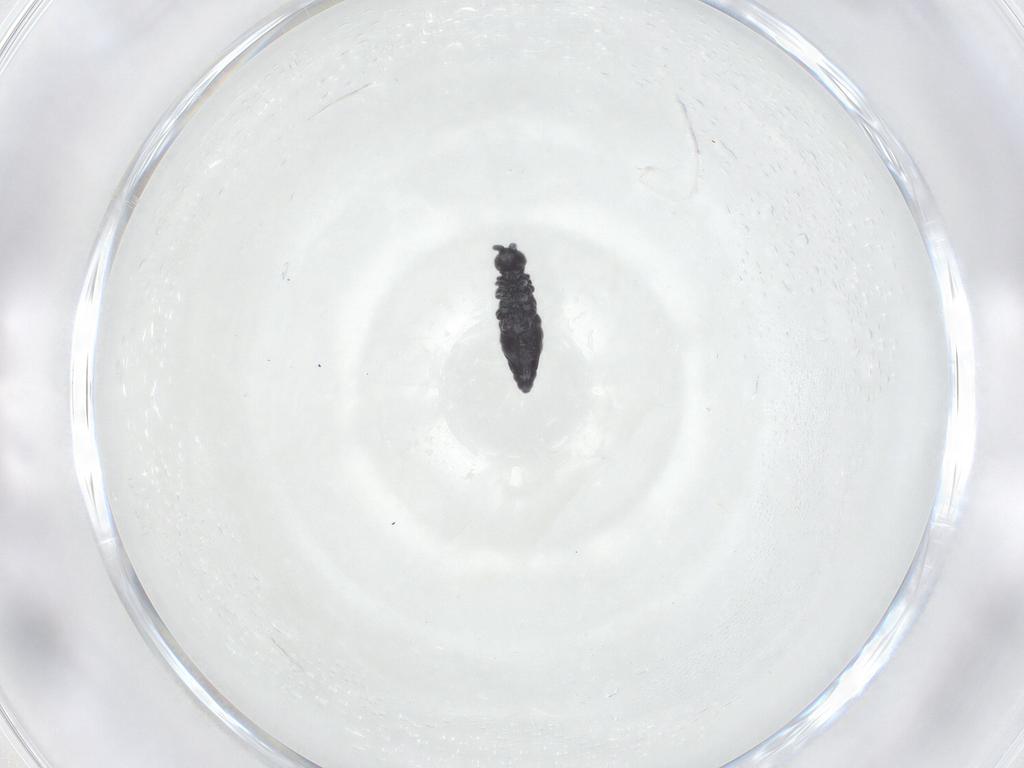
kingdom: Animalia
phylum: Arthropoda
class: Collembola
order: Poduromorpha
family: Hypogastruridae
